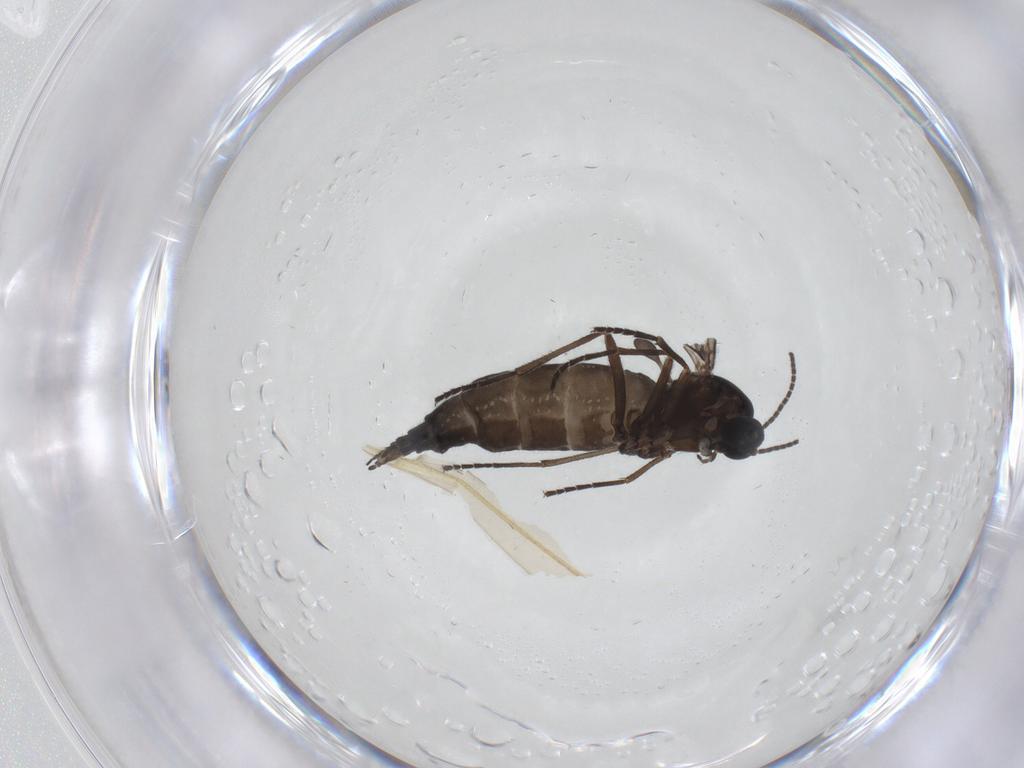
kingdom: Animalia
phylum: Arthropoda
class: Insecta
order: Diptera
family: Sciaridae
